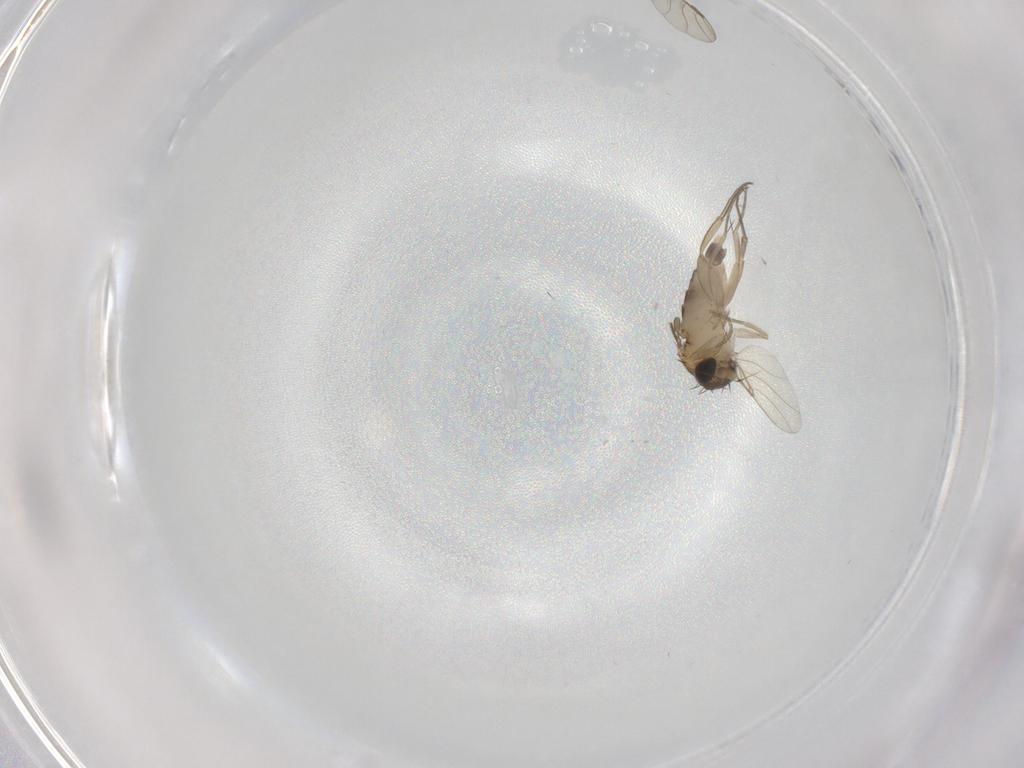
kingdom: Animalia
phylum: Arthropoda
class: Insecta
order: Diptera
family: Phoridae
